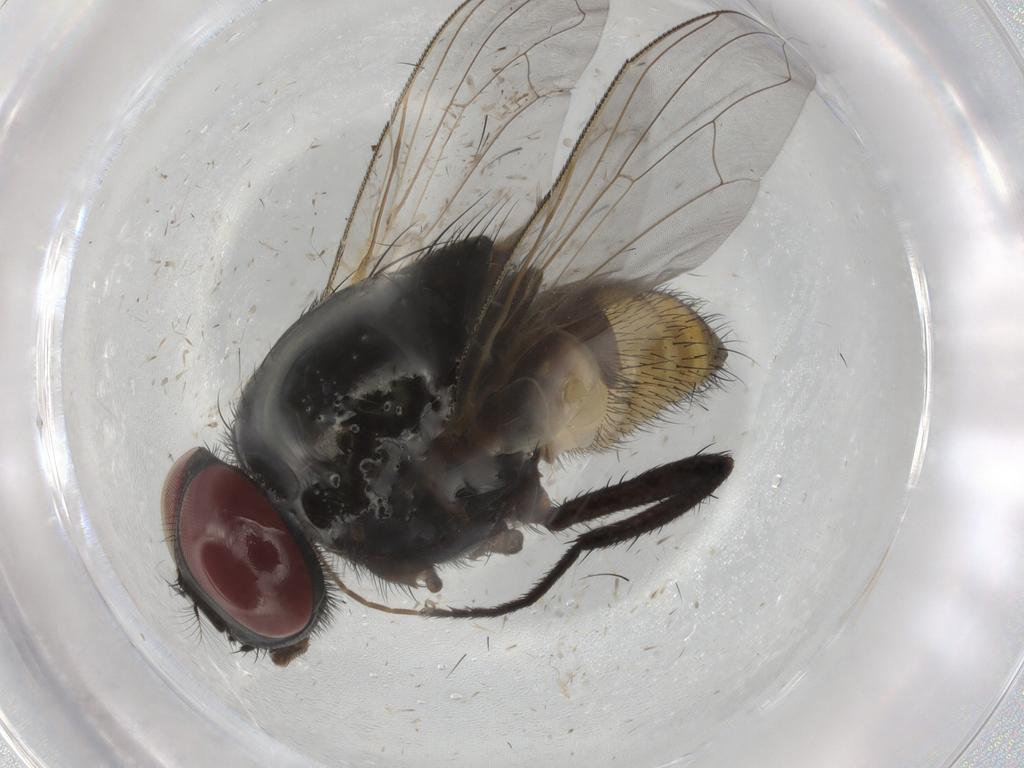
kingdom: Animalia
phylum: Arthropoda
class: Insecta
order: Diptera
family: Muscidae
